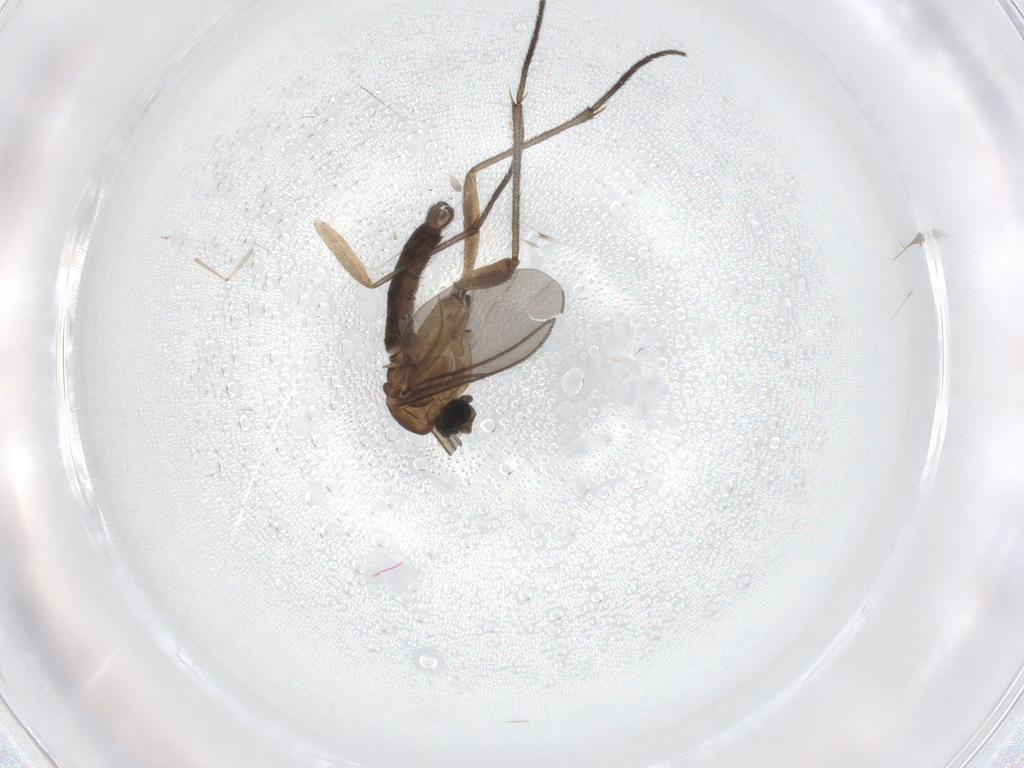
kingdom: Animalia
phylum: Arthropoda
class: Insecta
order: Diptera
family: Sciaridae
